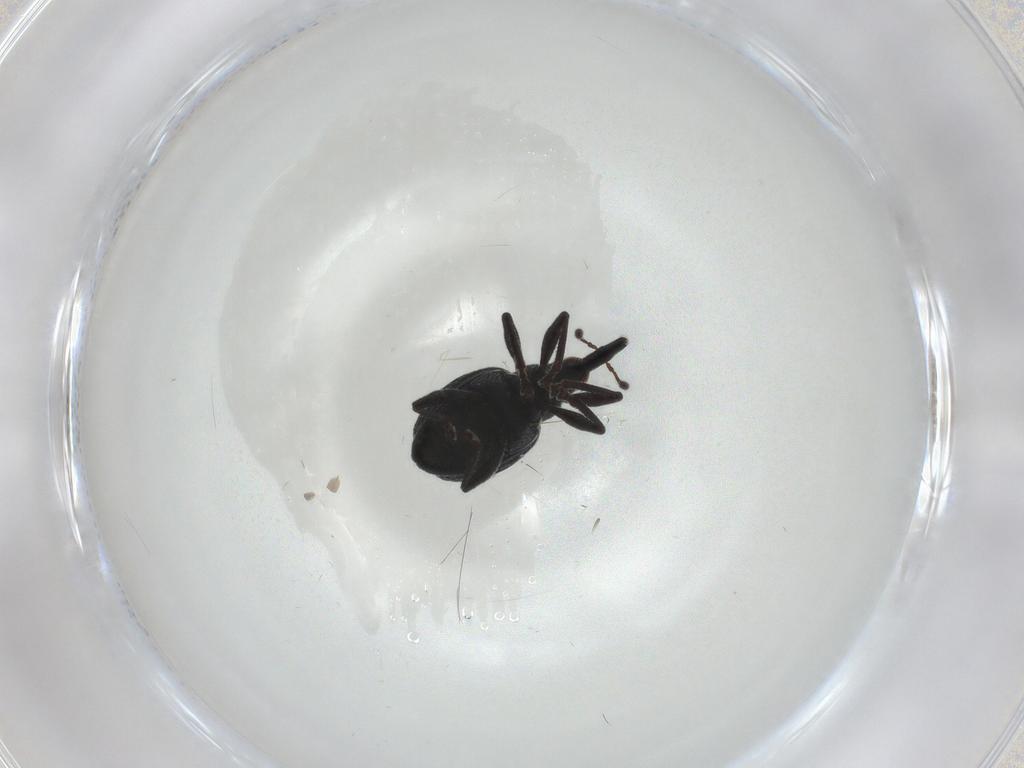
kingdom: Animalia
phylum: Arthropoda
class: Insecta
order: Coleoptera
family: Brentidae
